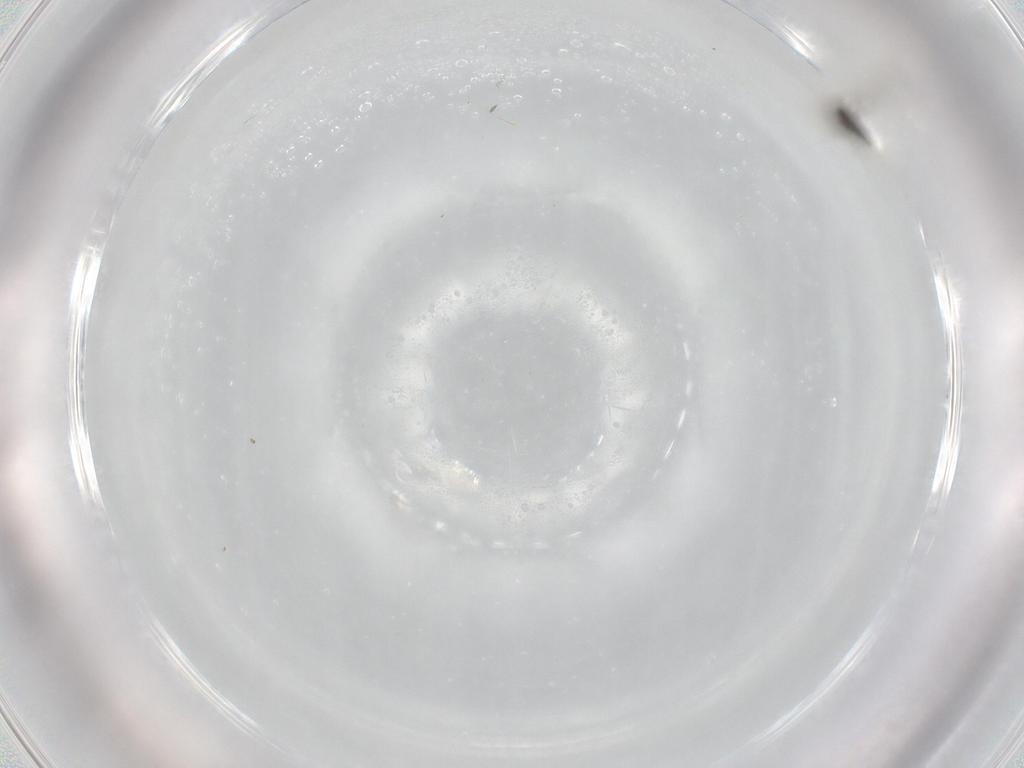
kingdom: Animalia
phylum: Arthropoda
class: Insecta
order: Diptera
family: Cecidomyiidae
